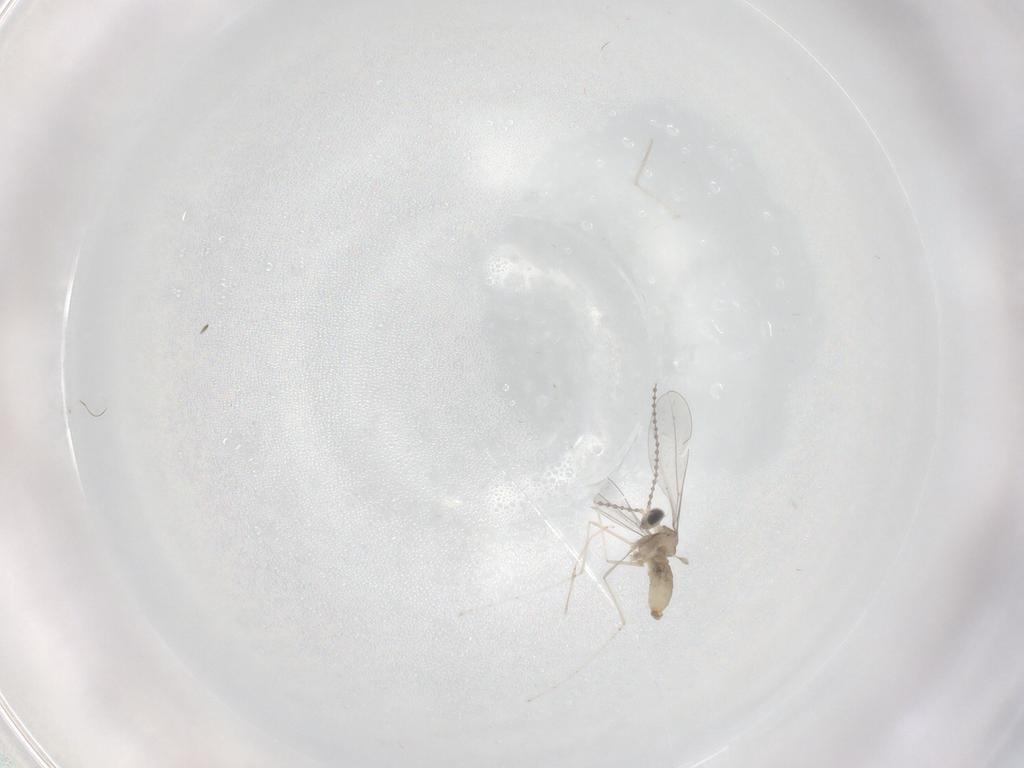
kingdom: Animalia
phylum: Arthropoda
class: Insecta
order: Diptera
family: Cecidomyiidae
